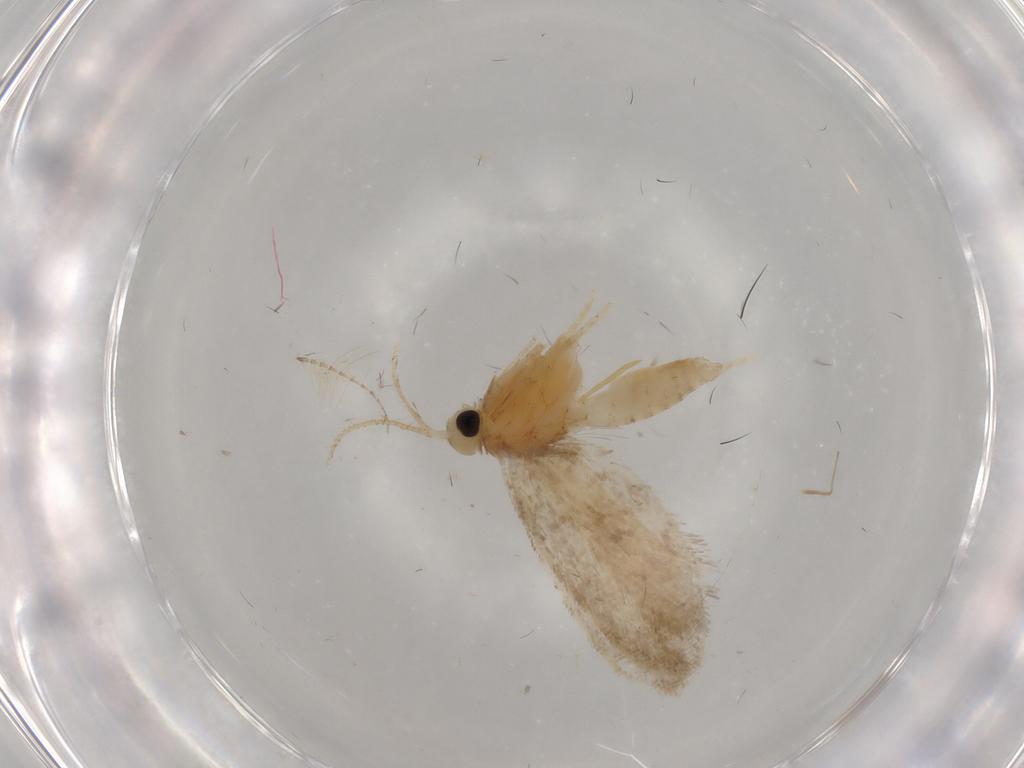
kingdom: Animalia
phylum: Arthropoda
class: Insecta
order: Lepidoptera
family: Psychidae
